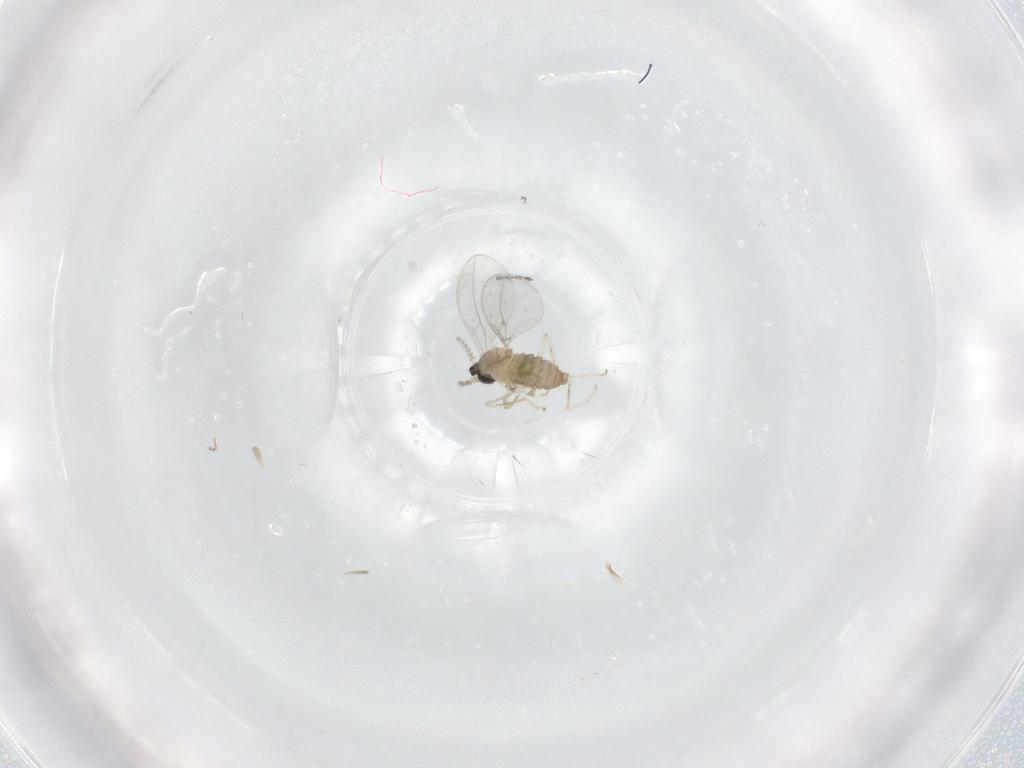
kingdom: Animalia
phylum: Arthropoda
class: Insecta
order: Diptera
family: Cecidomyiidae
